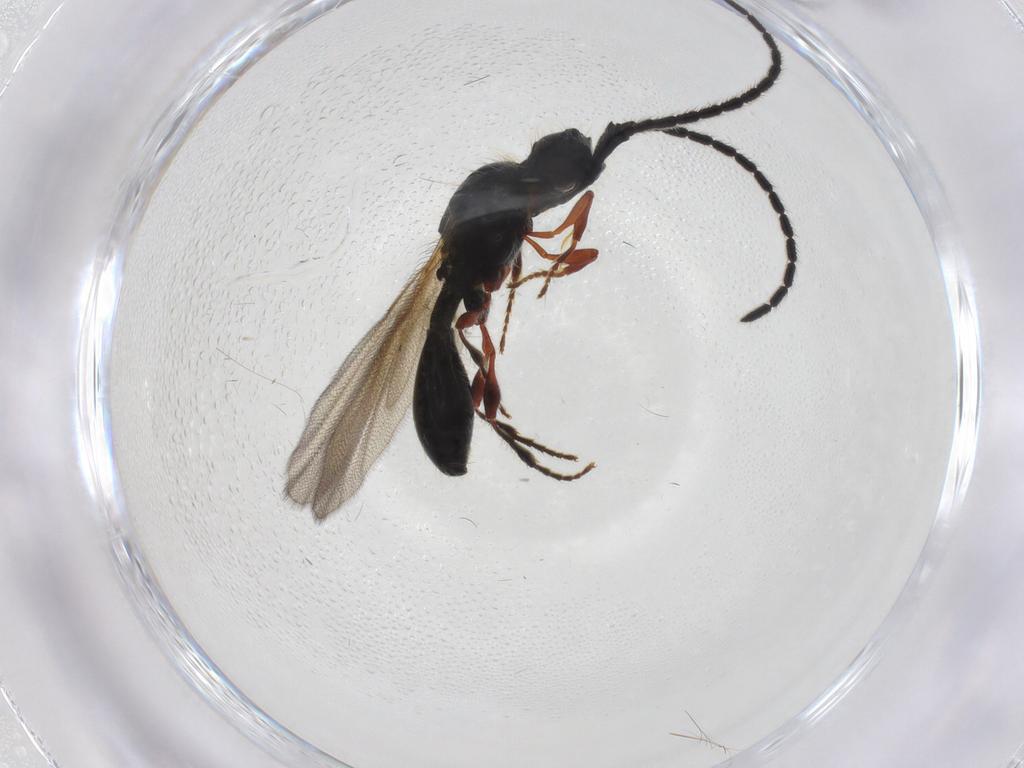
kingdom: Animalia
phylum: Arthropoda
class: Insecta
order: Hymenoptera
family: Diapriidae
